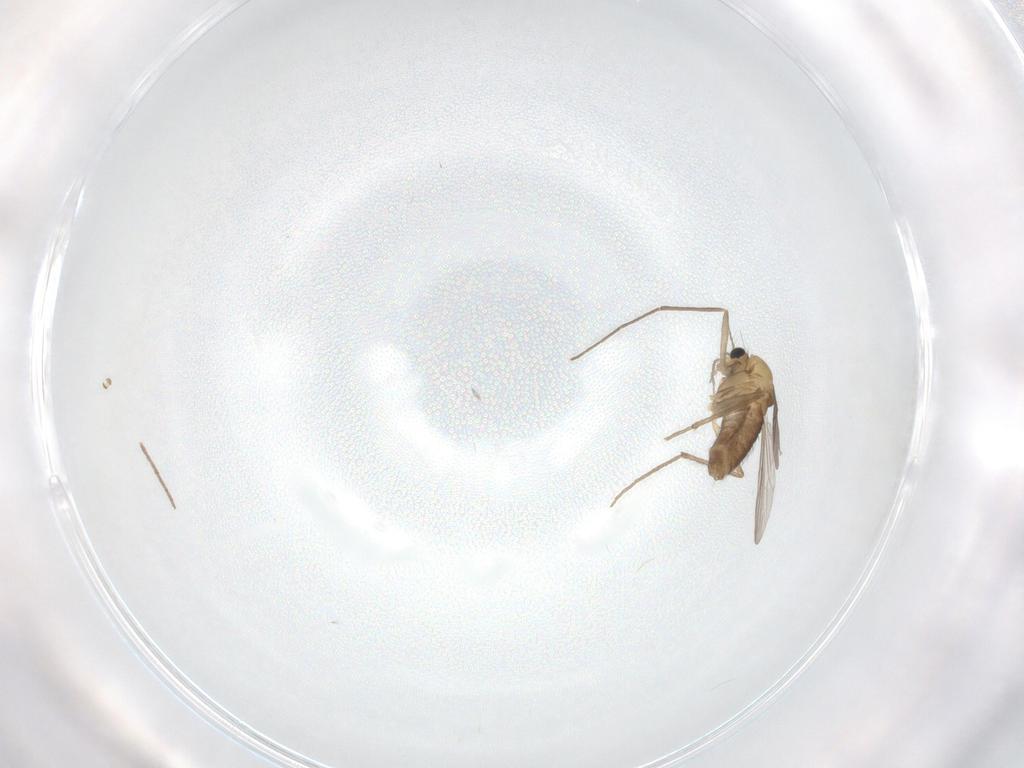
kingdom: Animalia
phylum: Arthropoda
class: Insecta
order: Diptera
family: Chironomidae
